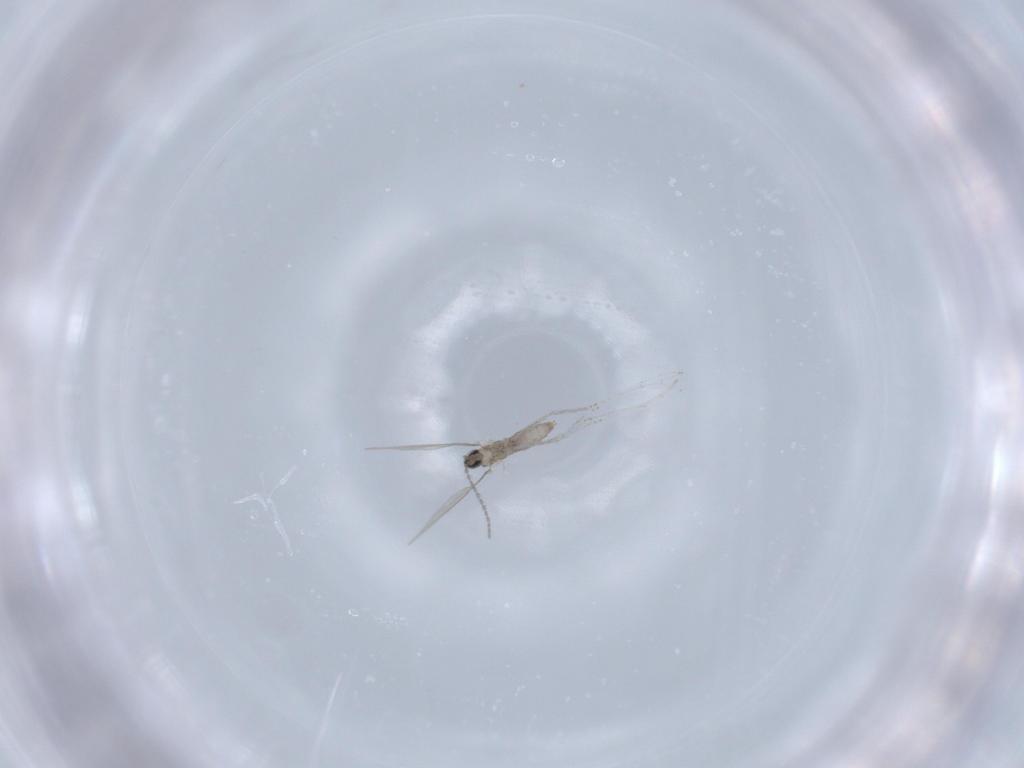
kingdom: Animalia
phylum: Arthropoda
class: Insecta
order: Diptera
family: Cecidomyiidae
